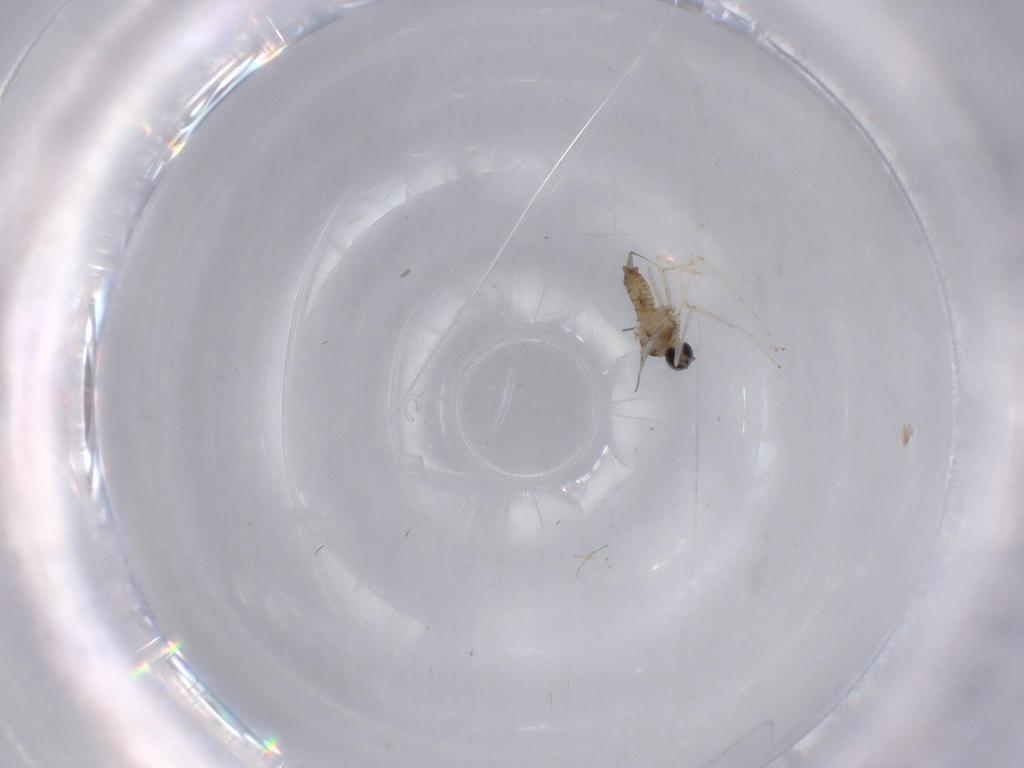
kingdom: Animalia
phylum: Arthropoda
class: Insecta
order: Diptera
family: Cecidomyiidae
